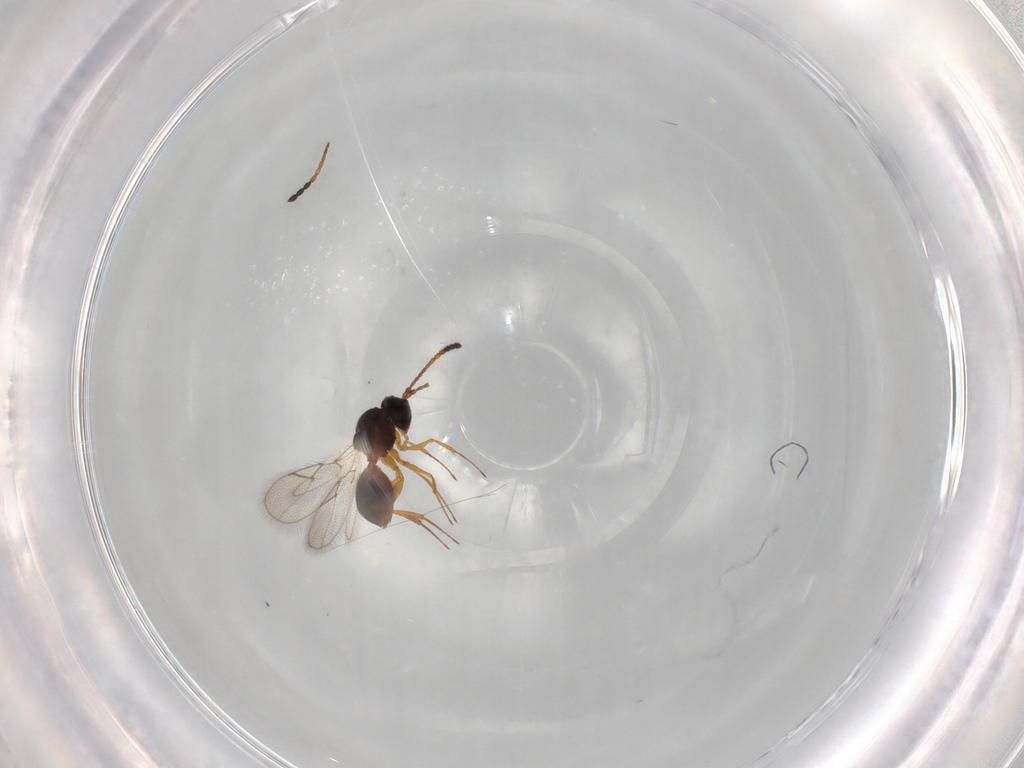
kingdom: Animalia
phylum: Arthropoda
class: Insecta
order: Hymenoptera
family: Figitidae
